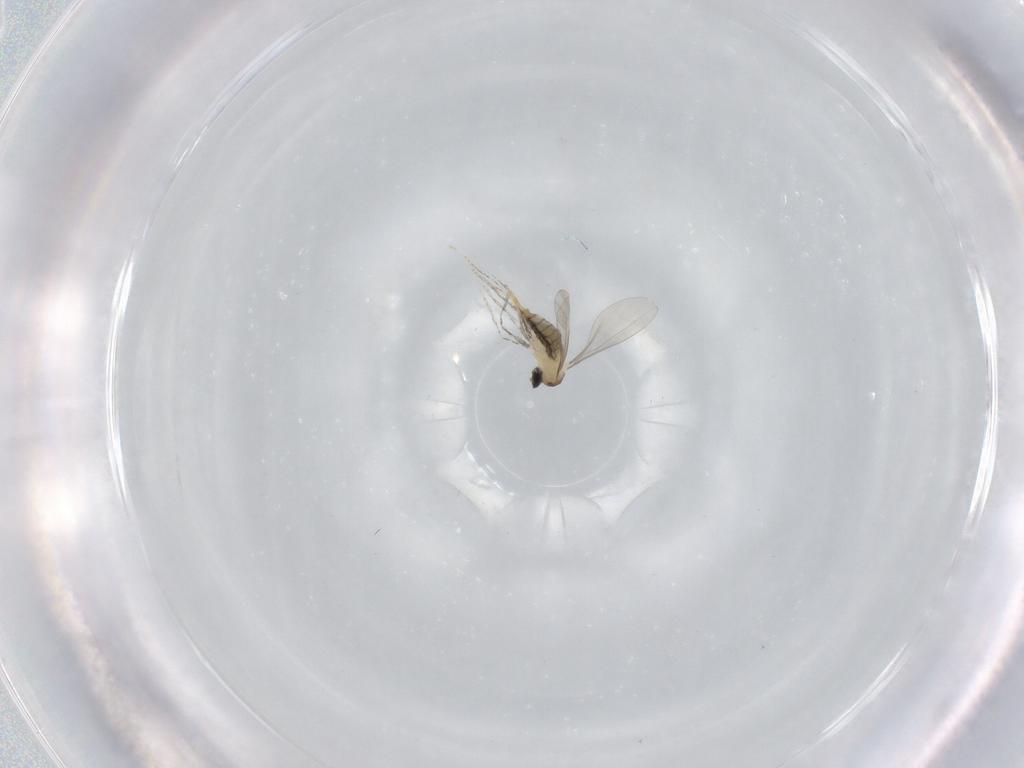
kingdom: Animalia
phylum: Arthropoda
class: Insecta
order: Diptera
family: Lauxaniidae
